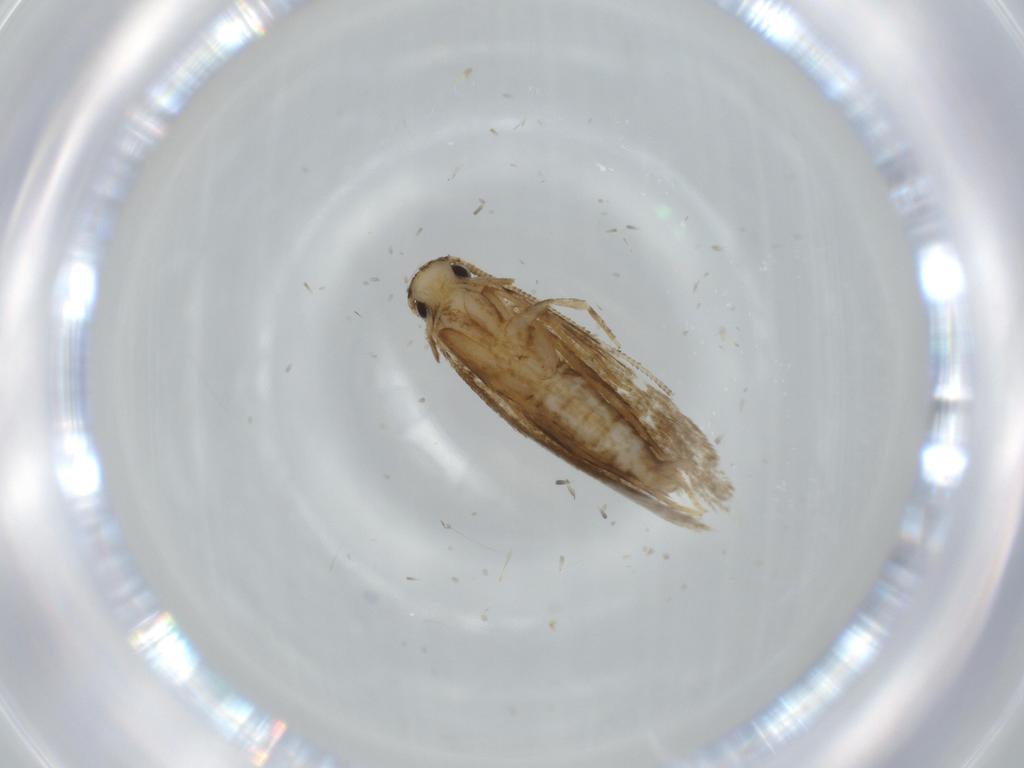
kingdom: Animalia
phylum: Arthropoda
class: Insecta
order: Lepidoptera
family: Tineidae
